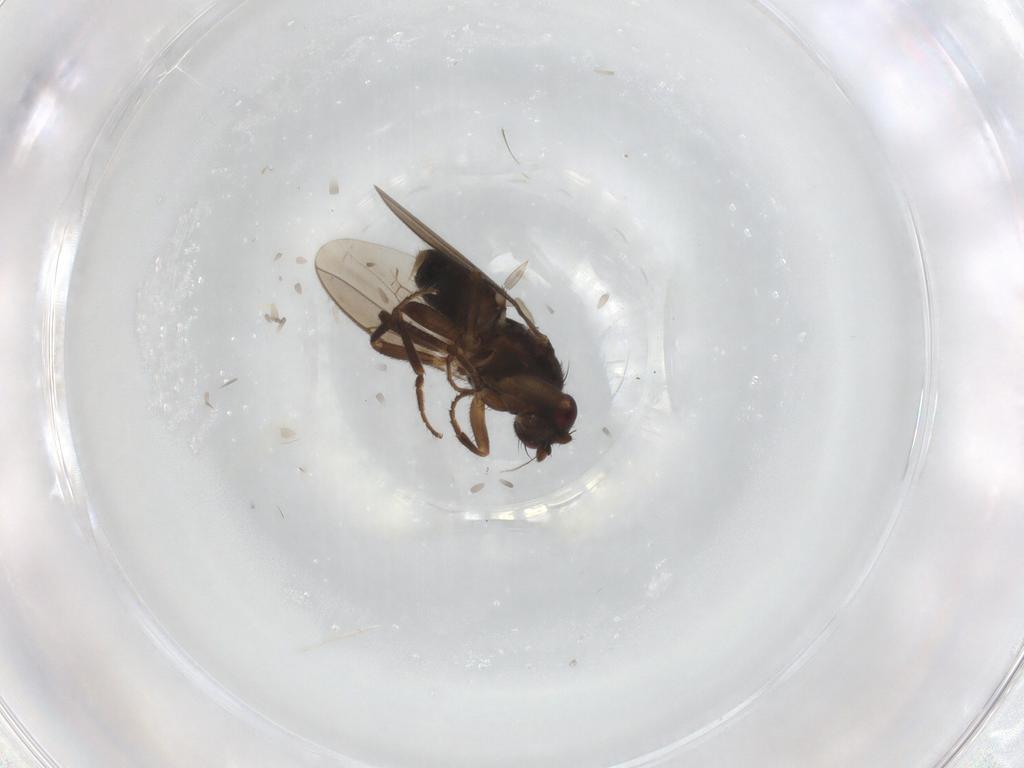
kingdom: Animalia
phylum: Arthropoda
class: Insecta
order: Diptera
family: Sphaeroceridae
